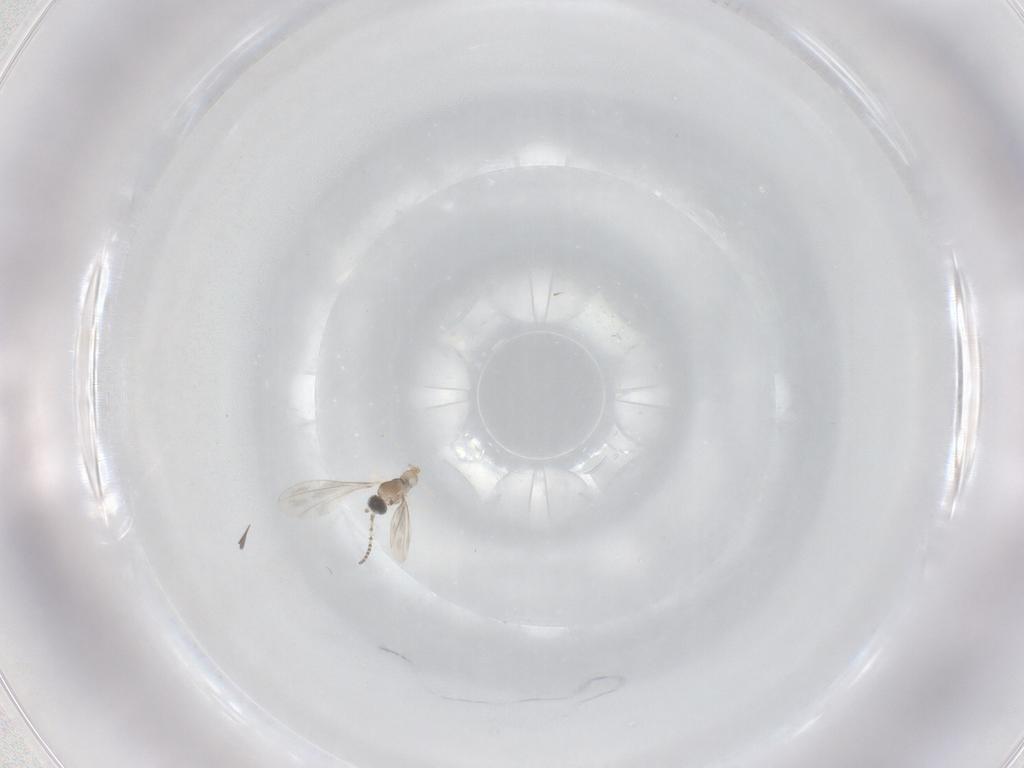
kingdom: Animalia
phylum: Arthropoda
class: Insecta
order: Diptera
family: Cecidomyiidae
